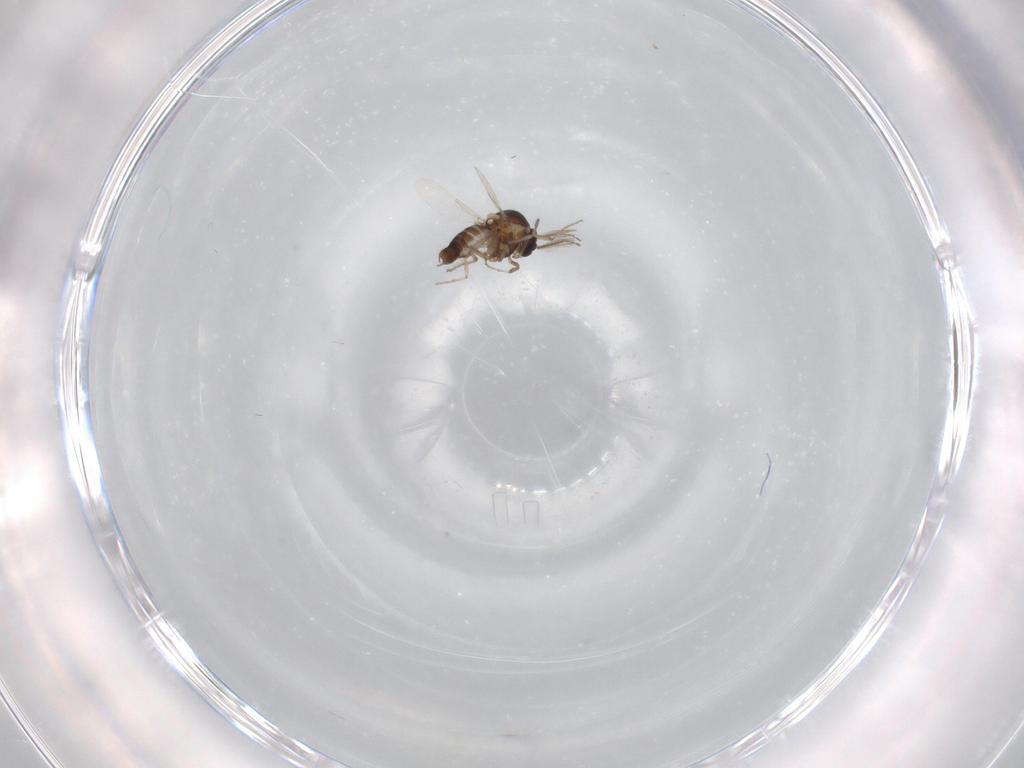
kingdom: Animalia
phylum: Arthropoda
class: Insecta
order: Diptera
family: Ceratopogonidae
